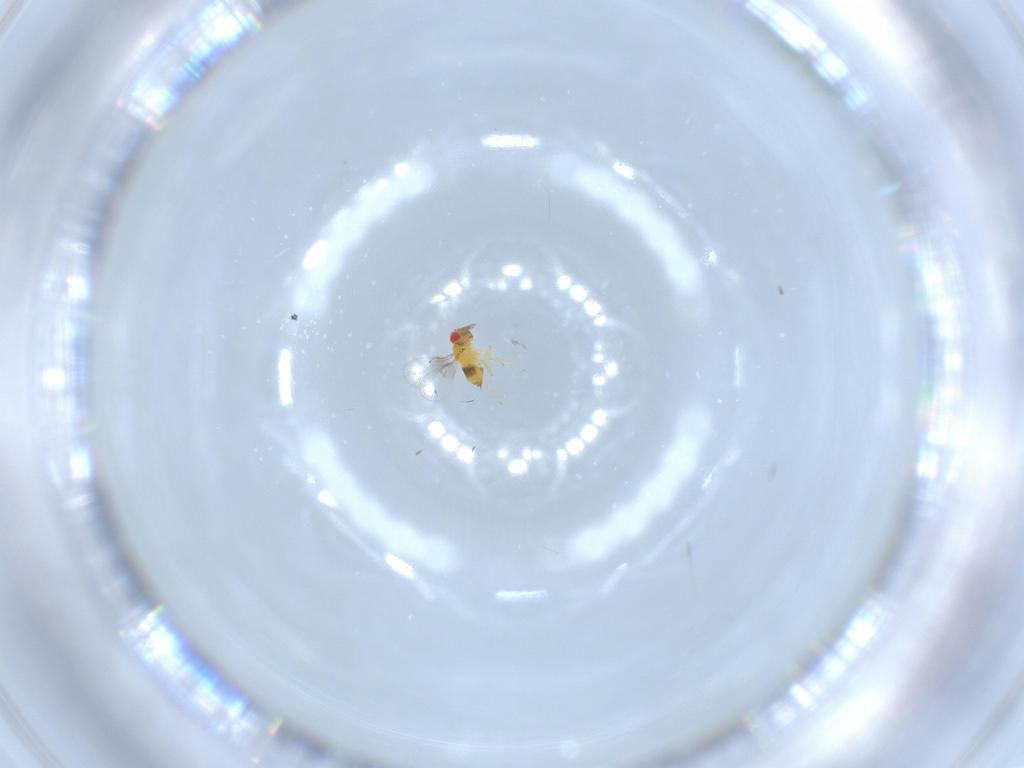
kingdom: Animalia
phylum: Arthropoda
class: Insecta
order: Hymenoptera
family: Trichogrammatidae
